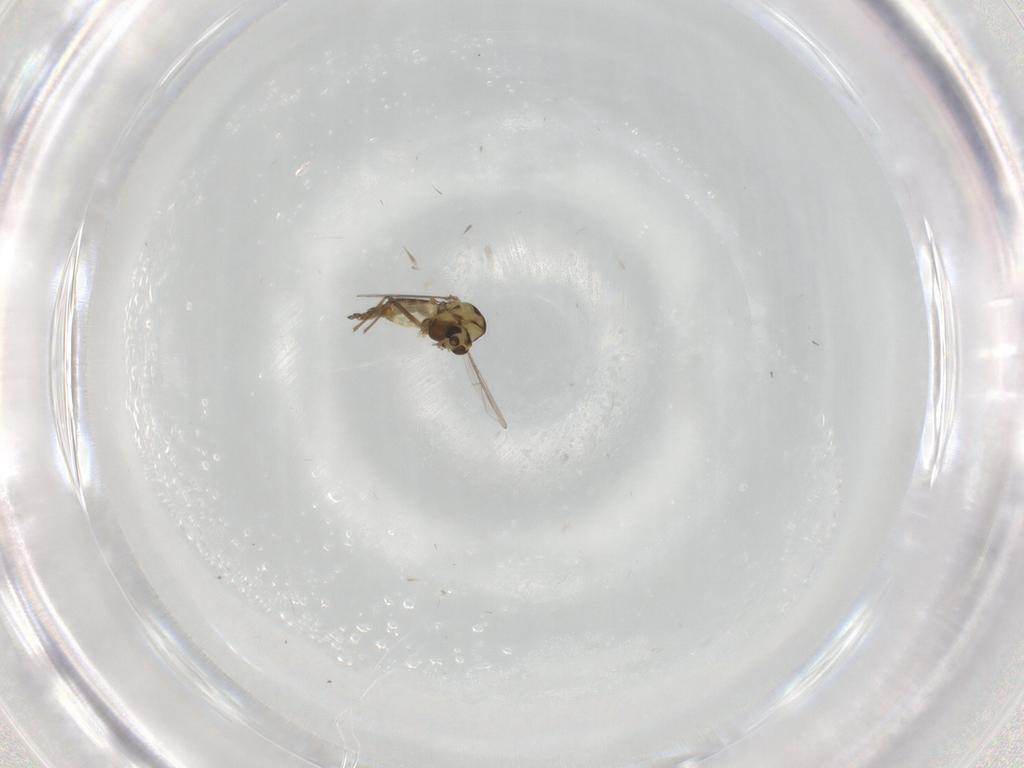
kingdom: Animalia
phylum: Arthropoda
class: Insecta
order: Diptera
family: Chironomidae
